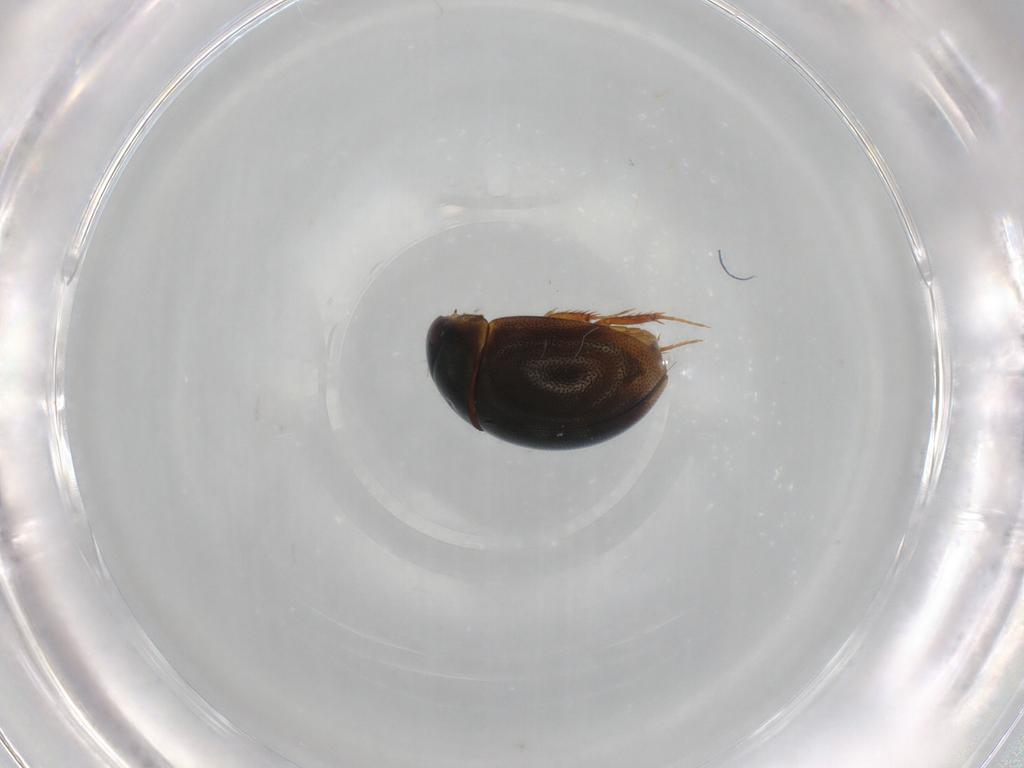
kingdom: Animalia
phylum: Arthropoda
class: Insecta
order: Coleoptera
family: Hydrophilidae
